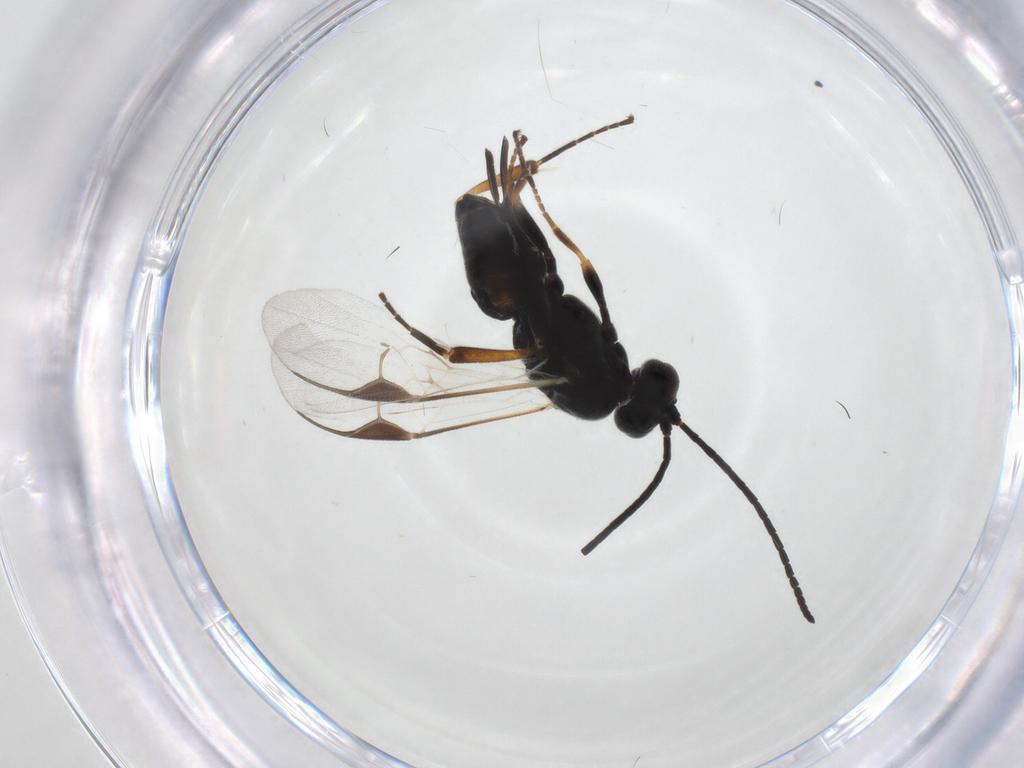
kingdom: Animalia
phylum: Arthropoda
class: Insecta
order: Hymenoptera
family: Braconidae
